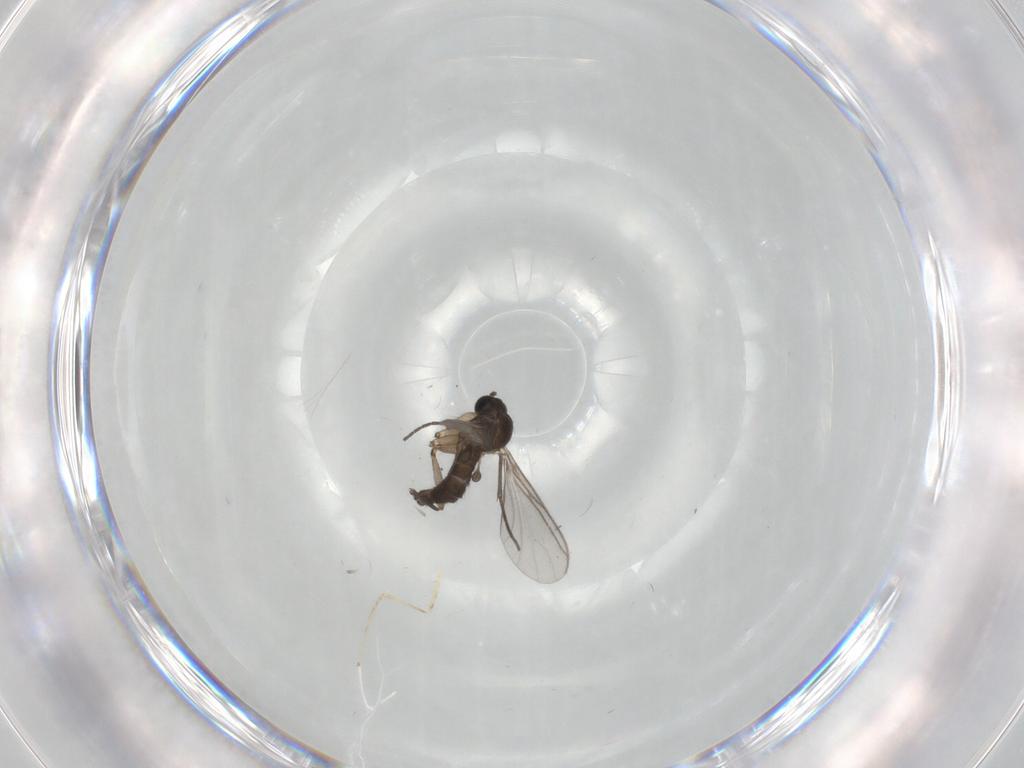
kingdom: Animalia
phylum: Arthropoda
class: Insecta
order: Diptera
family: Sciaridae
